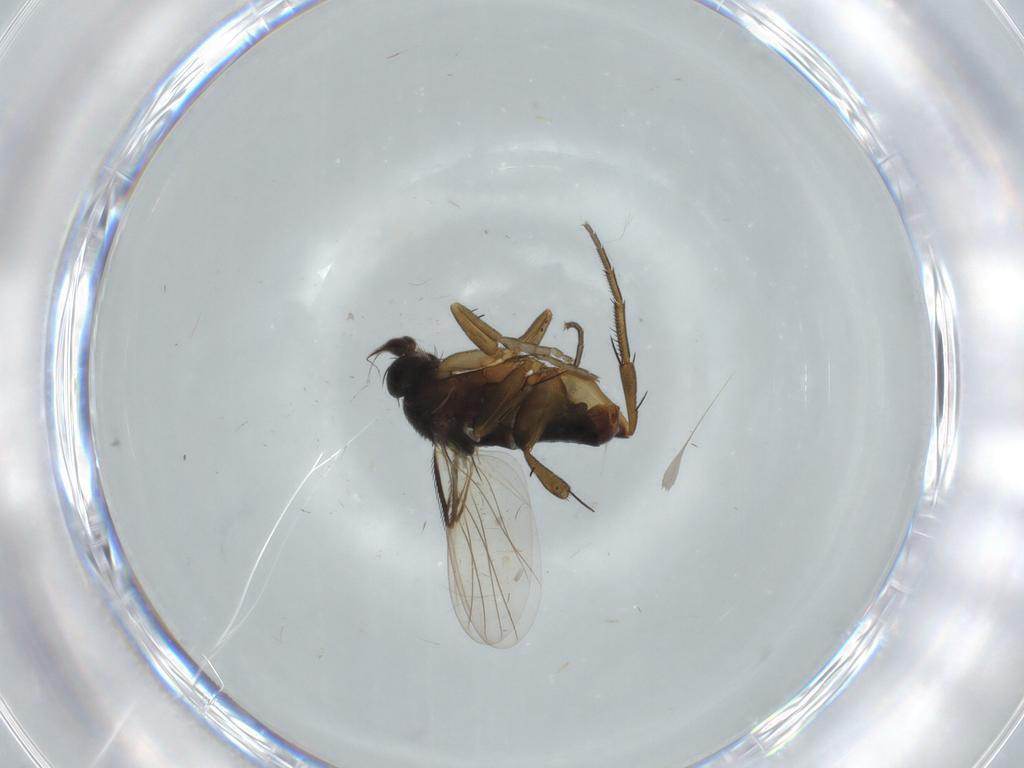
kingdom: Animalia
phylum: Arthropoda
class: Insecta
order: Diptera
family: Phoridae
